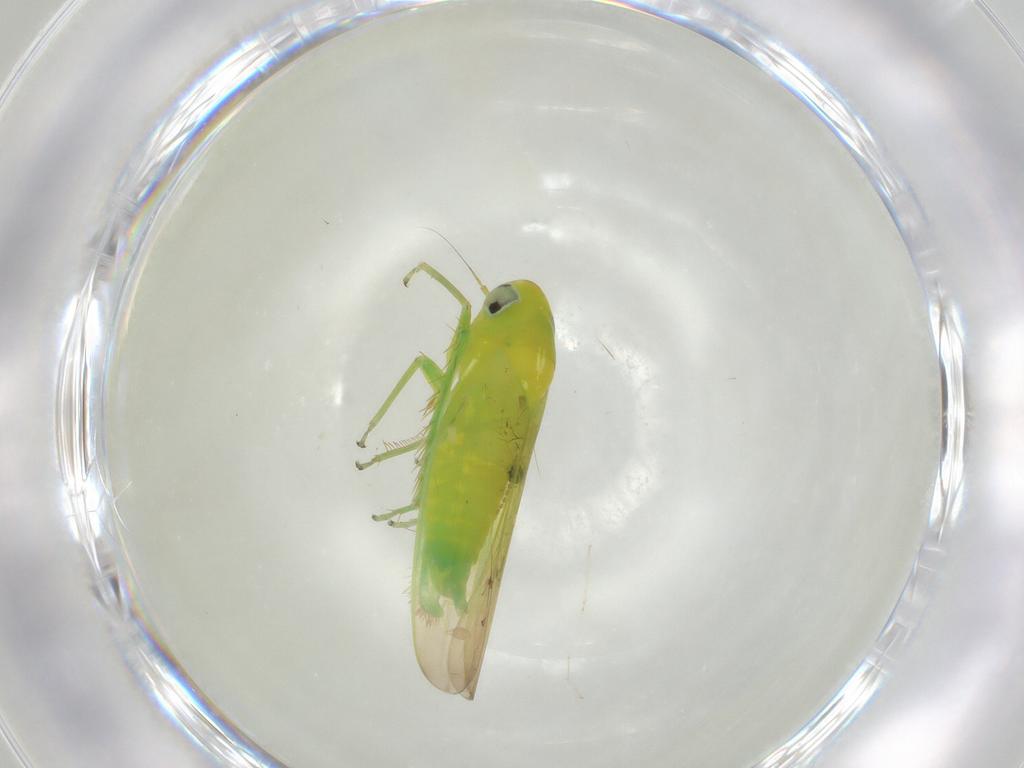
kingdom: Animalia
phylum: Arthropoda
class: Insecta
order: Hemiptera
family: Cicadellidae
